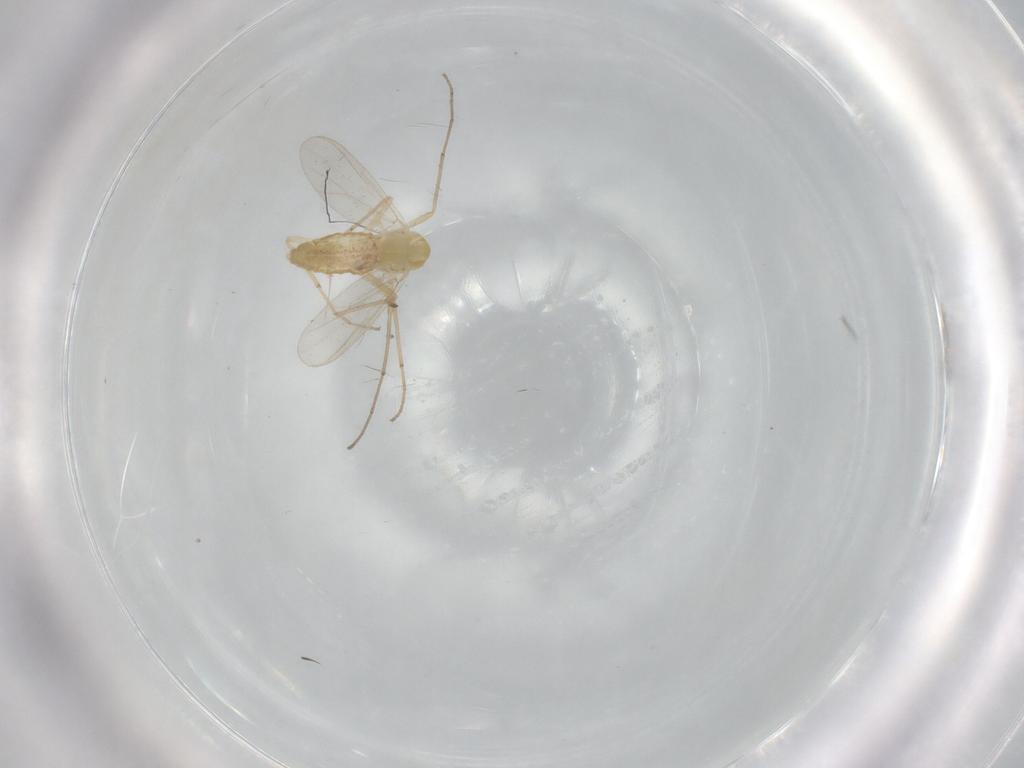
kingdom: Animalia
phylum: Arthropoda
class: Insecta
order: Diptera
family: Chironomidae
